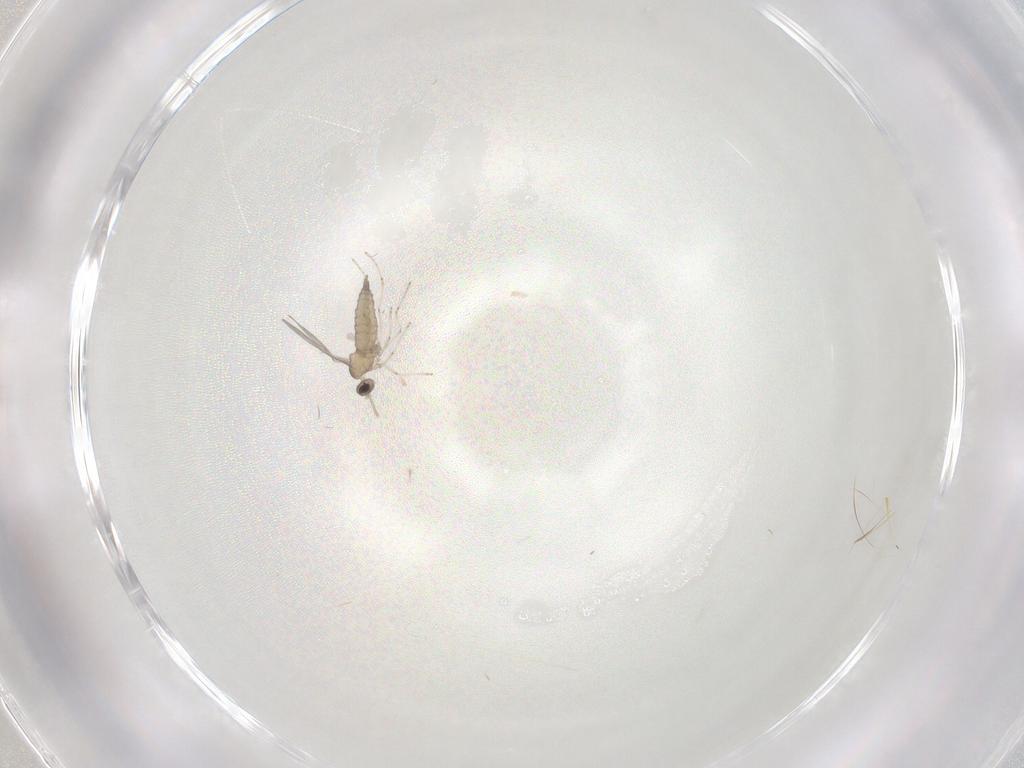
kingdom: Animalia
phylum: Arthropoda
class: Insecta
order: Diptera
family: Cecidomyiidae
